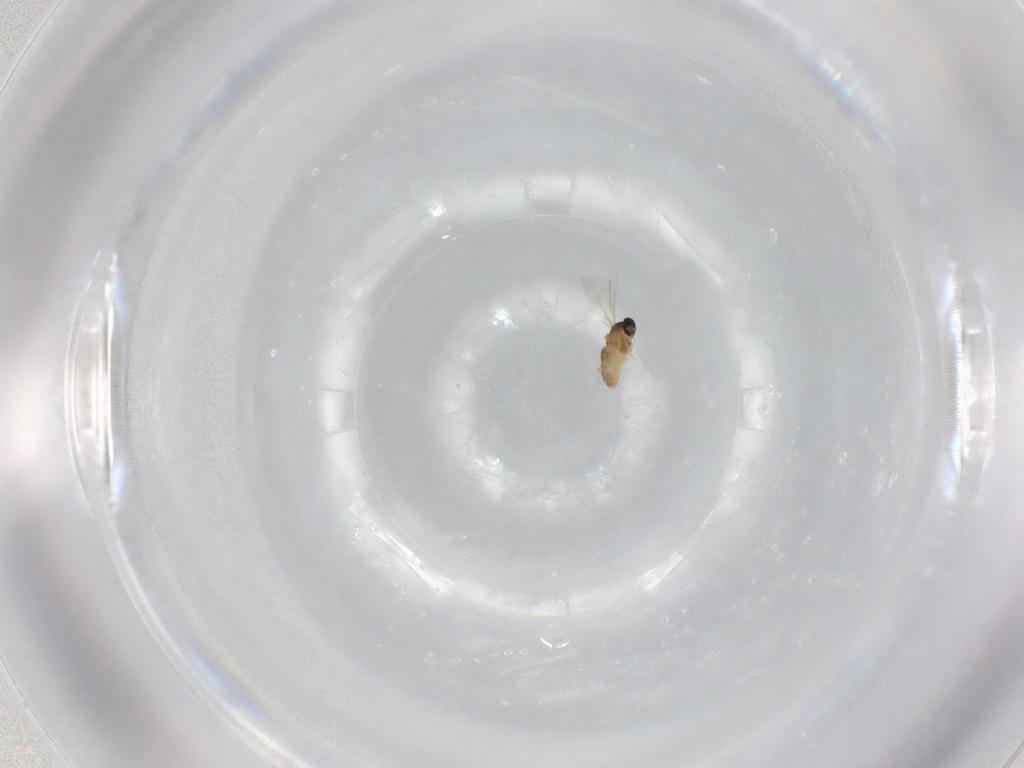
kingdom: Animalia
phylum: Arthropoda
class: Insecta
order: Diptera
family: Cecidomyiidae
